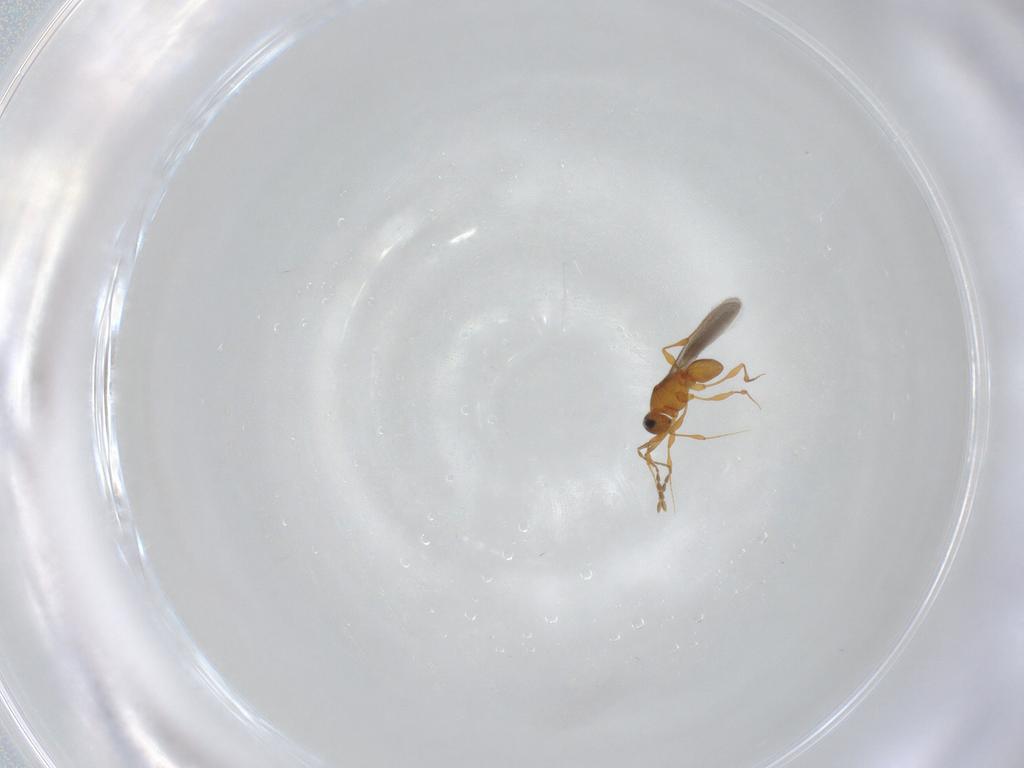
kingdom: Animalia
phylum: Arthropoda
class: Insecta
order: Hymenoptera
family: Platygastridae
